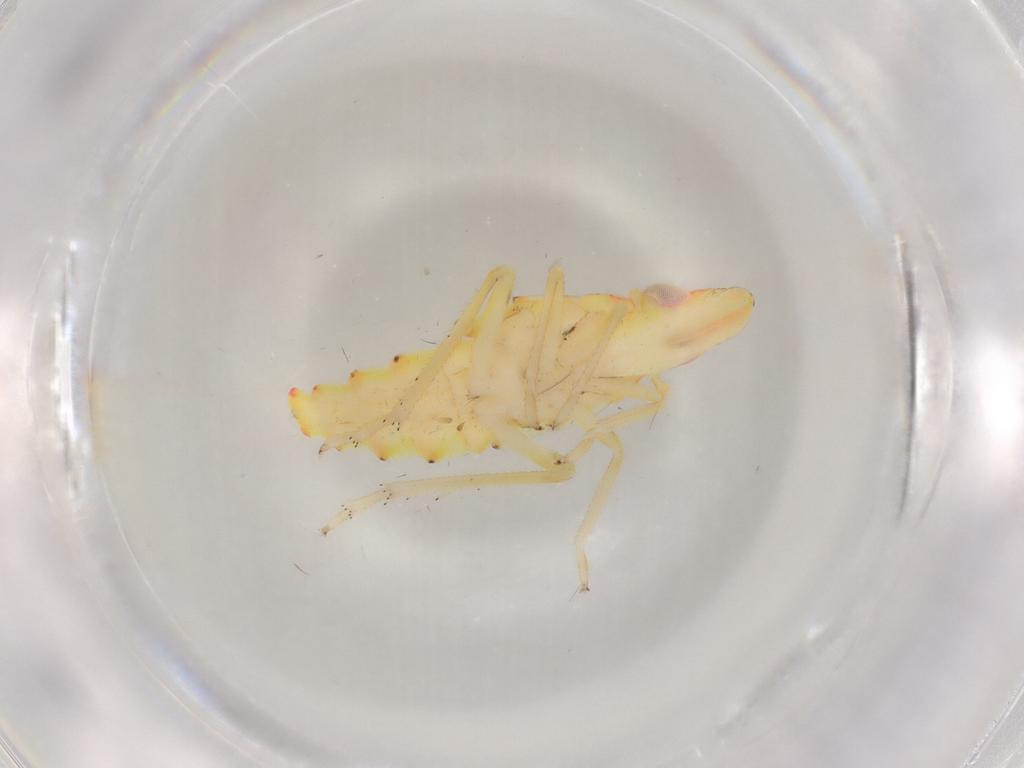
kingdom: Animalia
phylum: Arthropoda
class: Insecta
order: Hemiptera
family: Tropiduchidae
